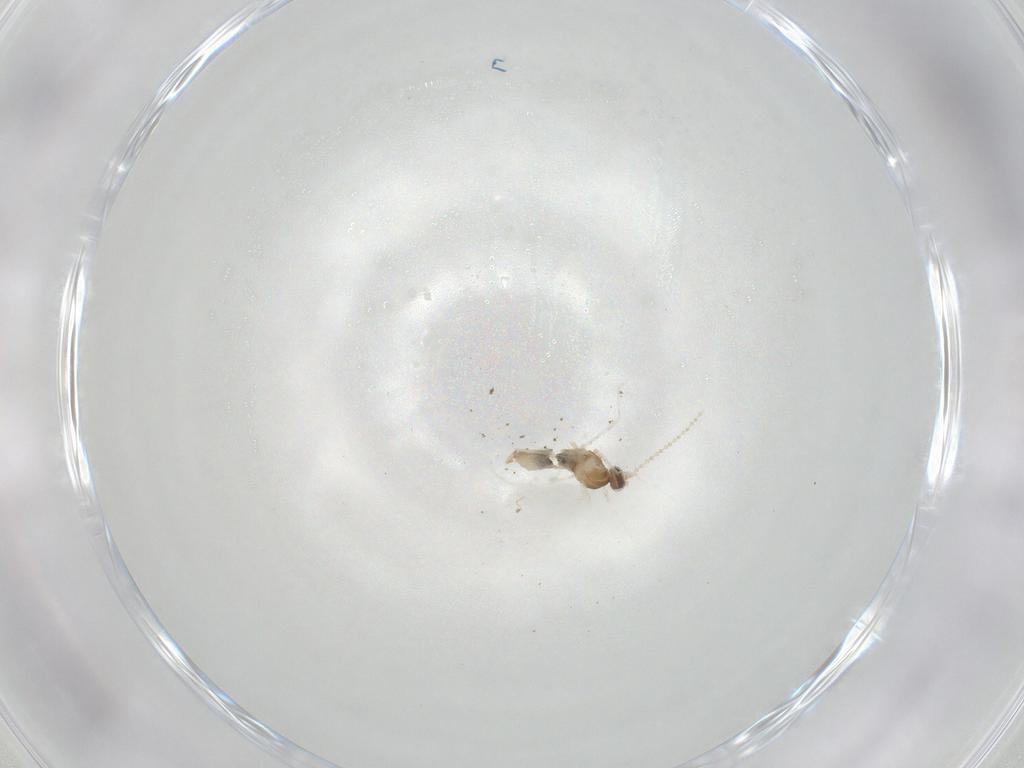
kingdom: Animalia
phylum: Arthropoda
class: Insecta
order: Diptera
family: Cecidomyiidae
